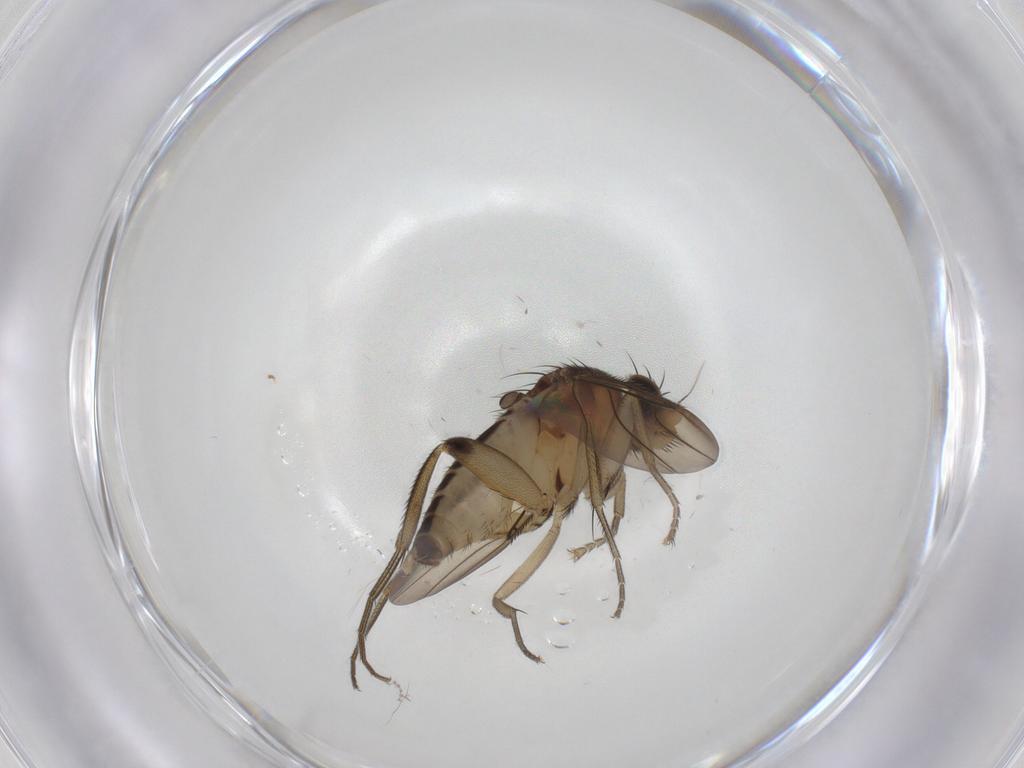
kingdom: Animalia
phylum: Arthropoda
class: Insecta
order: Diptera
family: Phoridae
